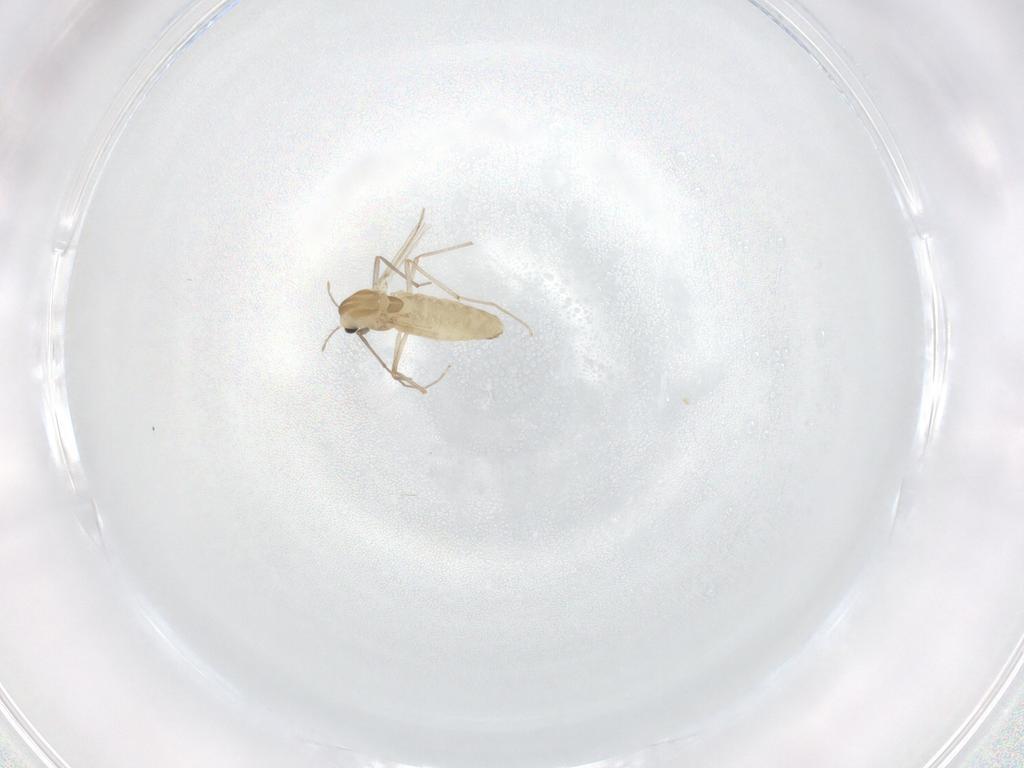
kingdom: Animalia
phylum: Arthropoda
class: Insecta
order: Diptera
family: Chironomidae
